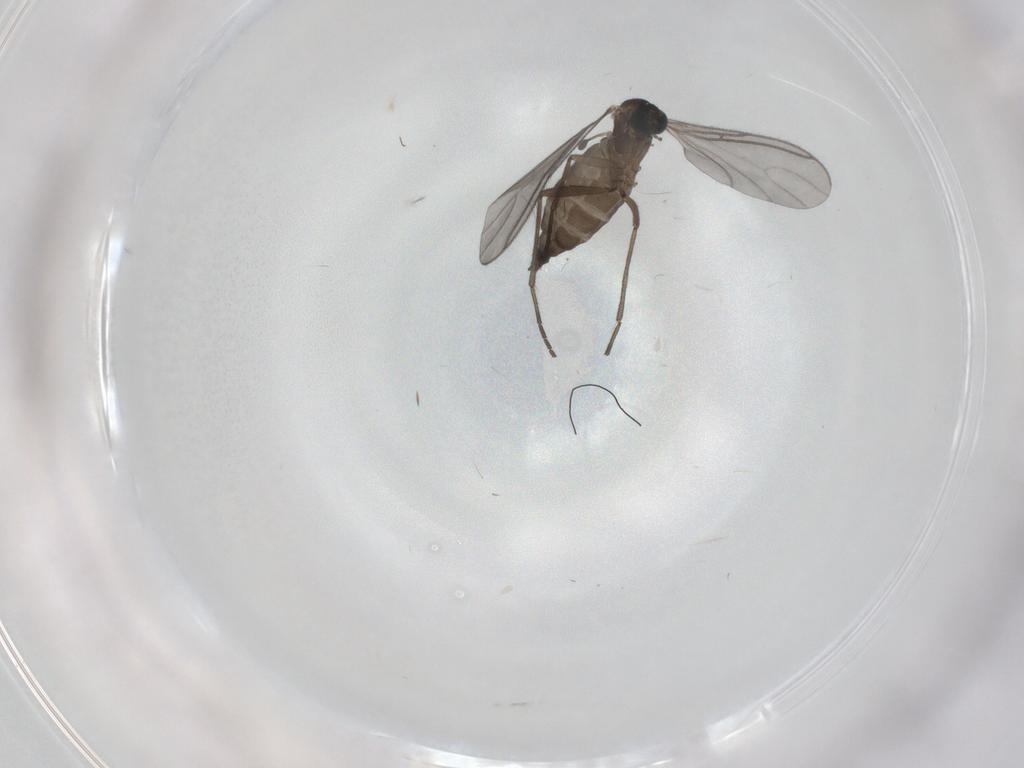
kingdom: Animalia
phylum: Arthropoda
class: Insecta
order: Diptera
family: Sciaridae
